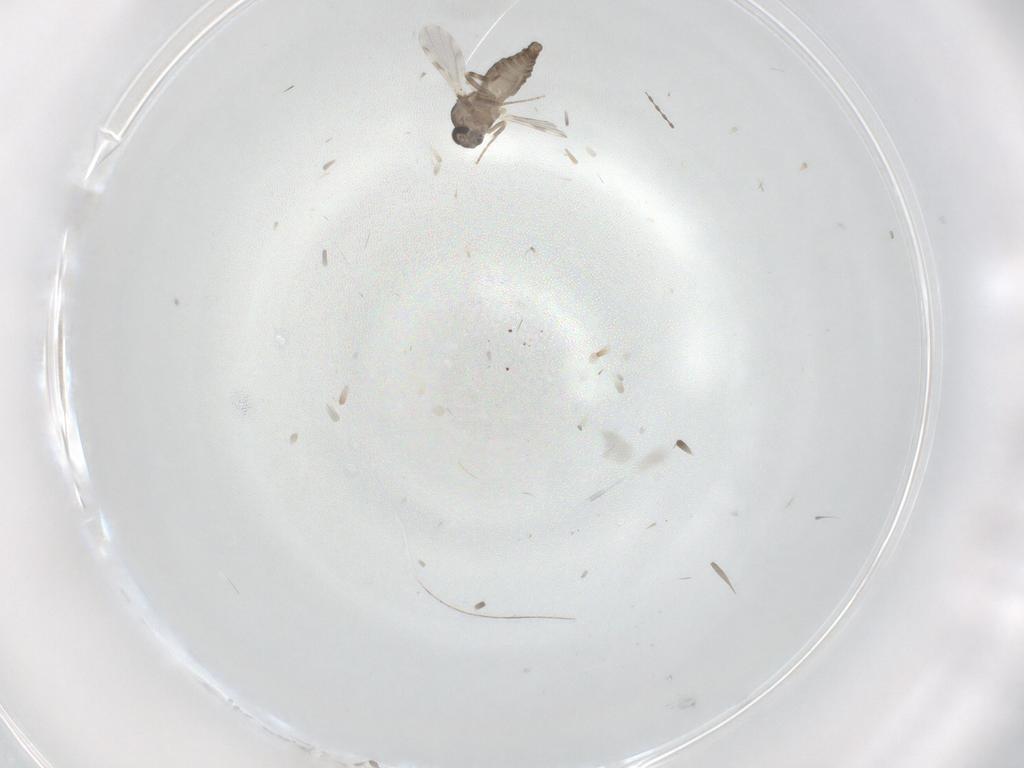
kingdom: Animalia
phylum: Arthropoda
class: Insecta
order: Diptera
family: Ceratopogonidae
